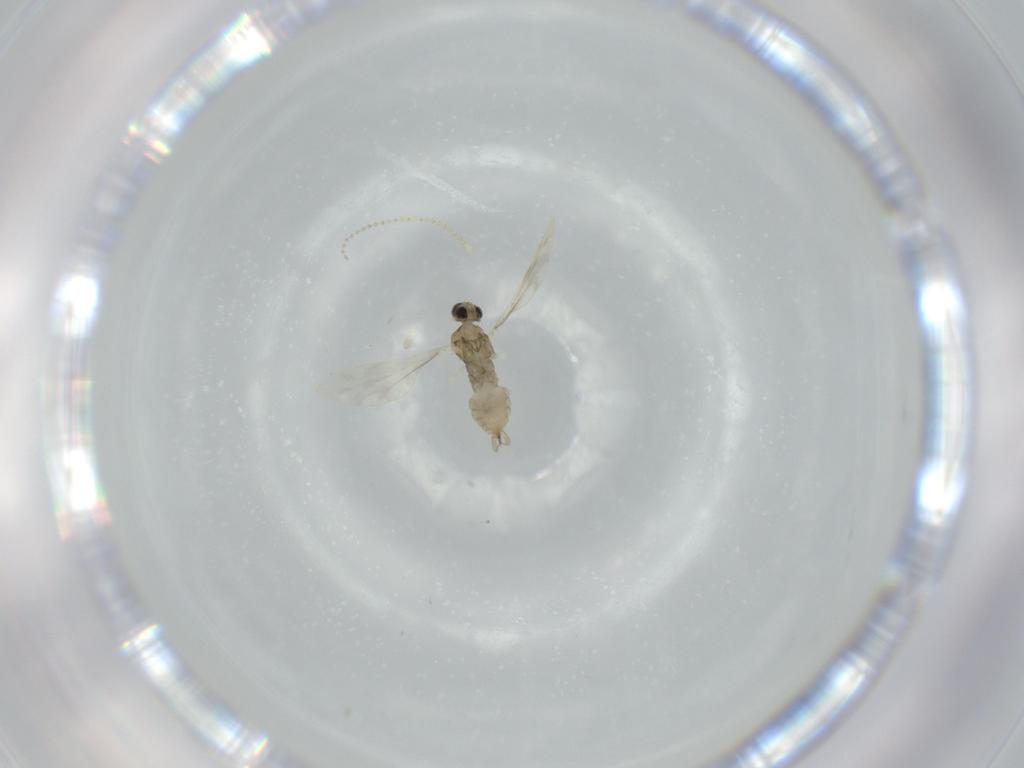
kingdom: Animalia
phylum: Arthropoda
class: Insecta
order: Diptera
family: Cecidomyiidae
